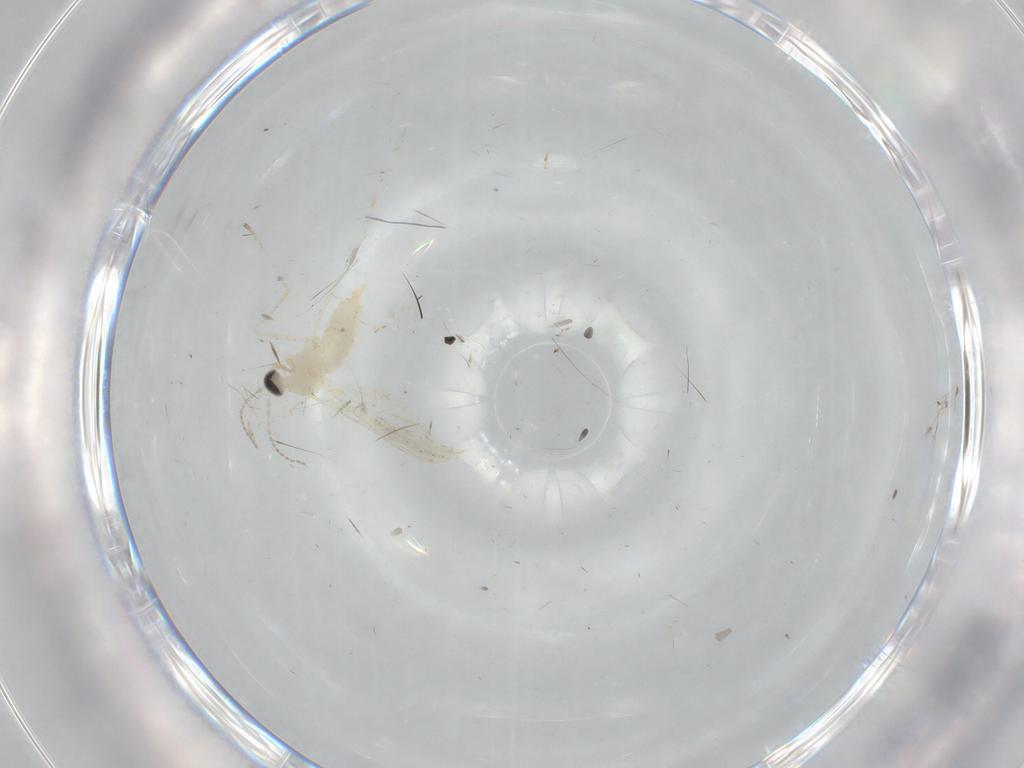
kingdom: Animalia
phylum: Arthropoda
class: Insecta
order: Diptera
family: Cecidomyiidae
